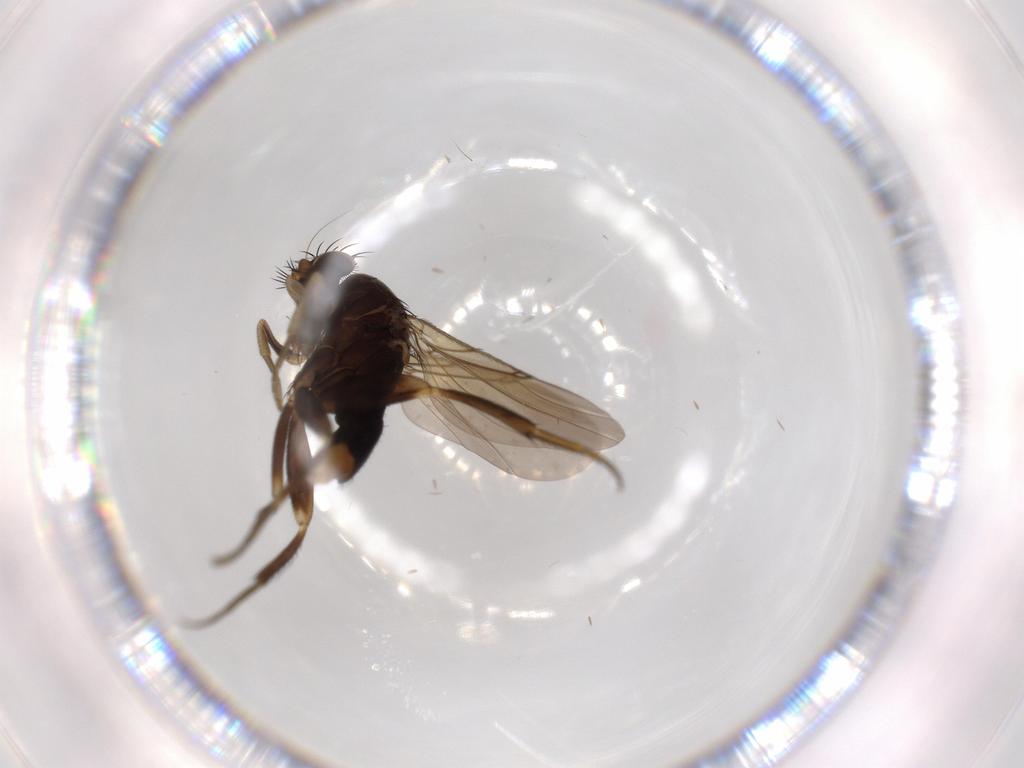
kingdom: Animalia
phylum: Arthropoda
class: Insecta
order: Diptera
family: Phoridae
